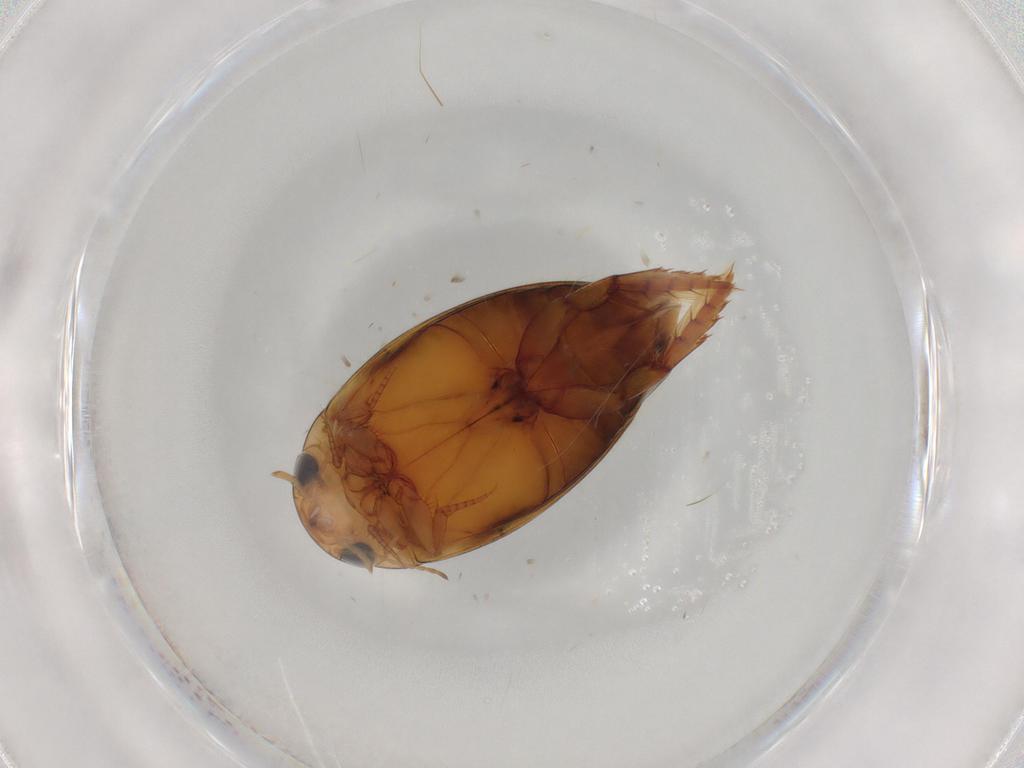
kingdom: Animalia
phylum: Arthropoda
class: Insecta
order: Coleoptera
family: Dytiscidae
